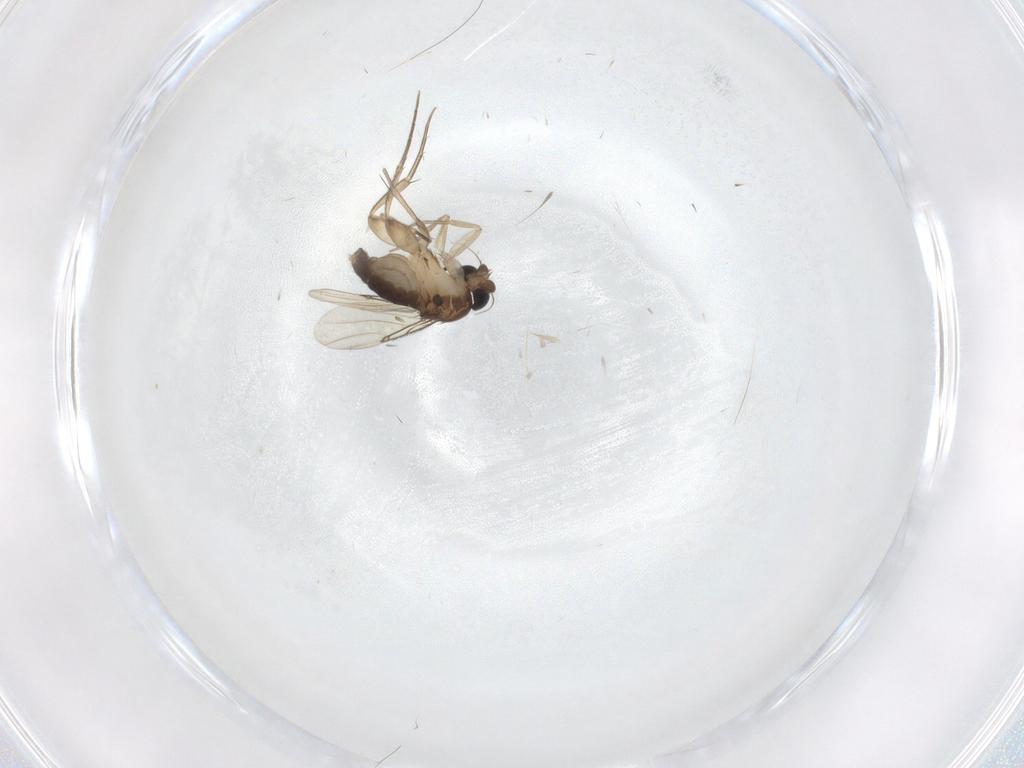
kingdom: Animalia
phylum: Arthropoda
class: Insecta
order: Diptera
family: Phoridae
